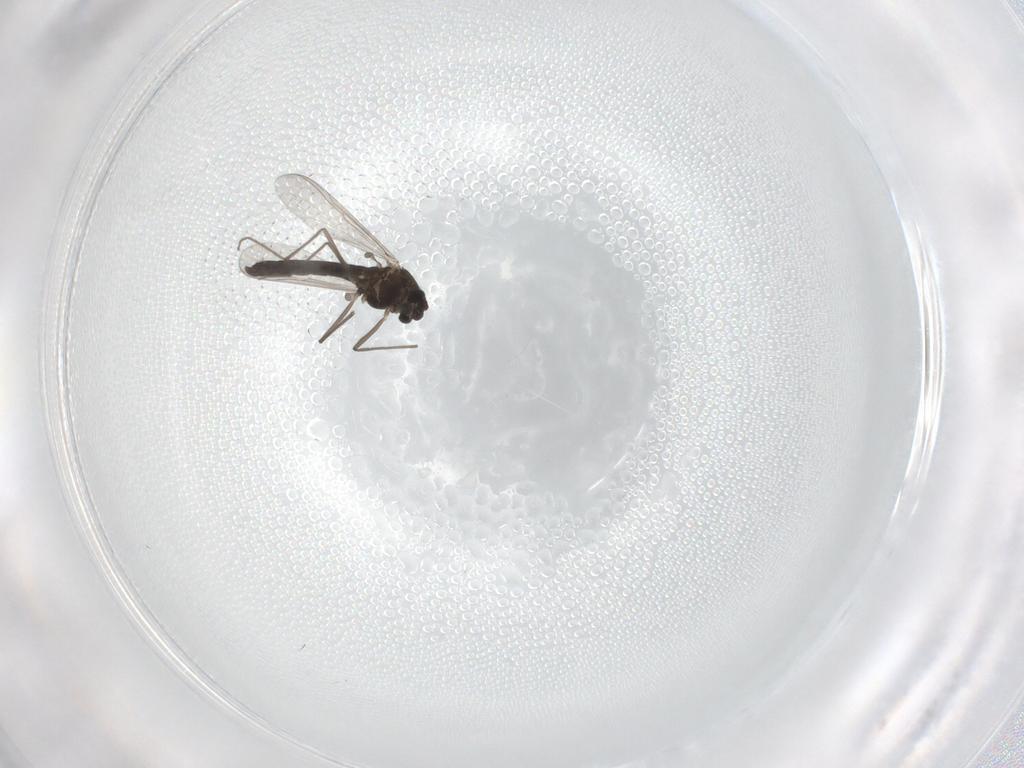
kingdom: Animalia
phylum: Arthropoda
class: Insecta
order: Diptera
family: Chironomidae
